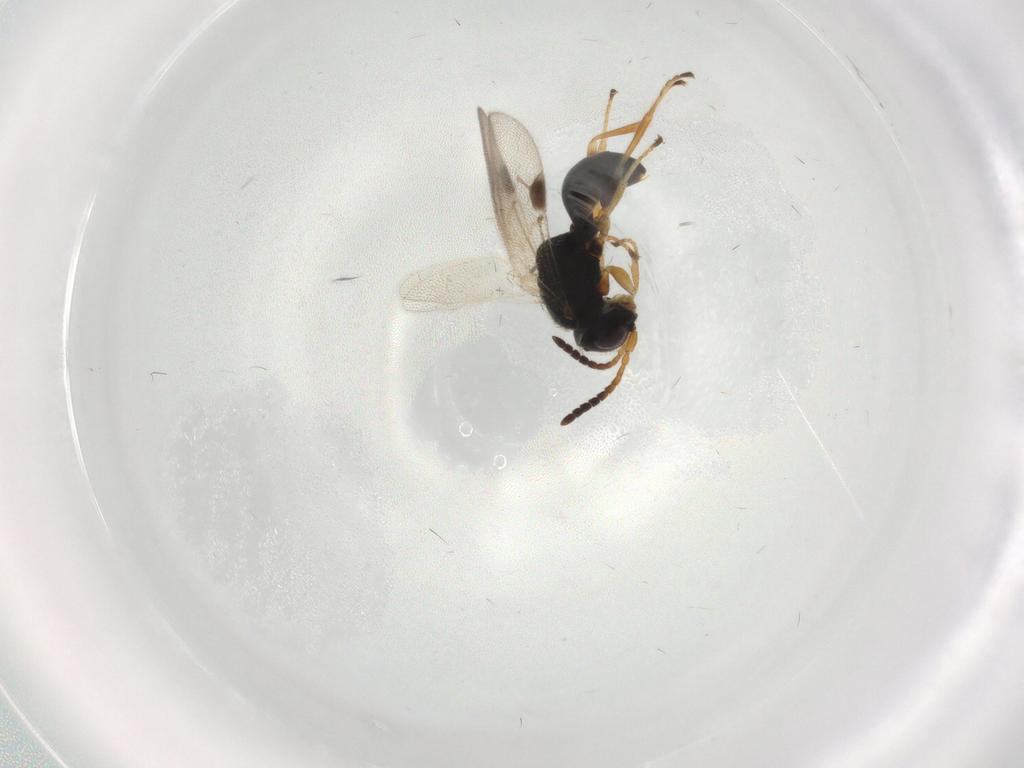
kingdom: Animalia
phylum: Arthropoda
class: Insecta
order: Hymenoptera
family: Dryinidae
